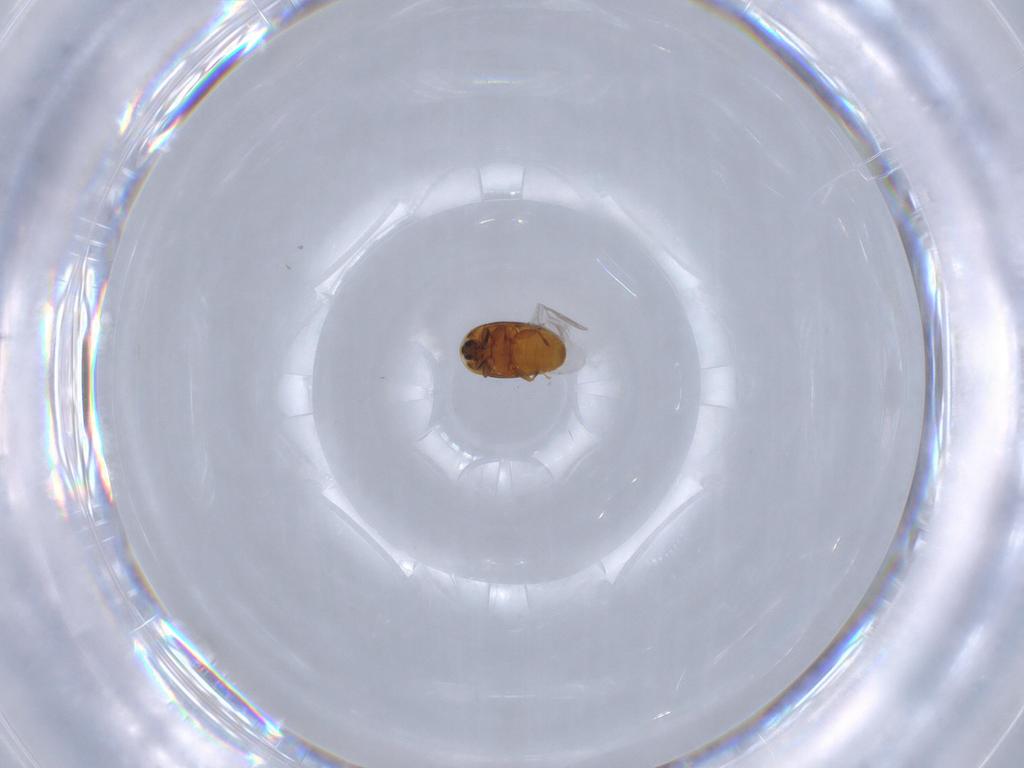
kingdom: Animalia
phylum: Arthropoda
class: Insecta
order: Coleoptera
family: Corylophidae
